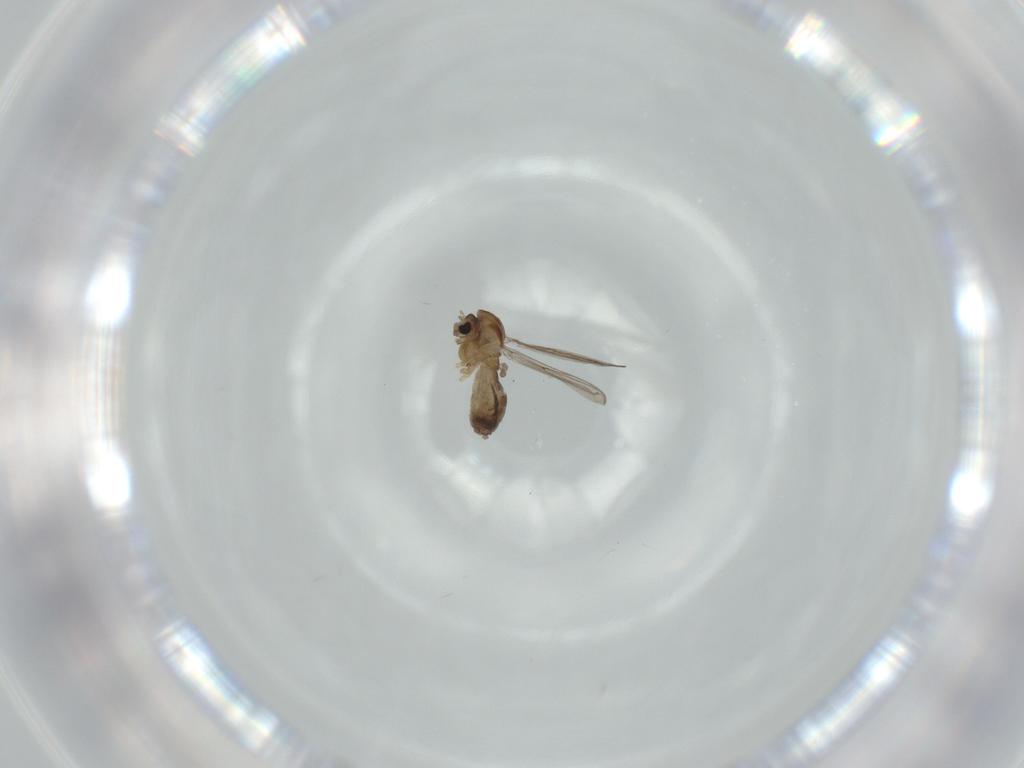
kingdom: Animalia
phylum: Arthropoda
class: Insecta
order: Diptera
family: Chironomidae
